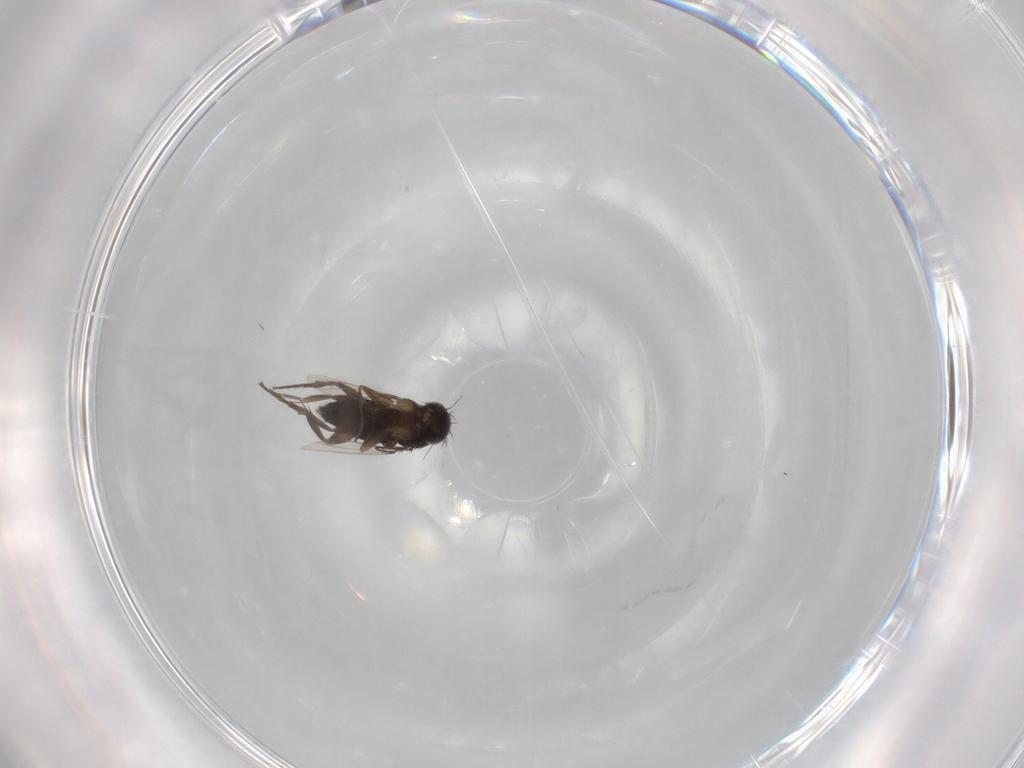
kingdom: Animalia
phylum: Arthropoda
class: Insecta
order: Diptera
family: Phoridae
